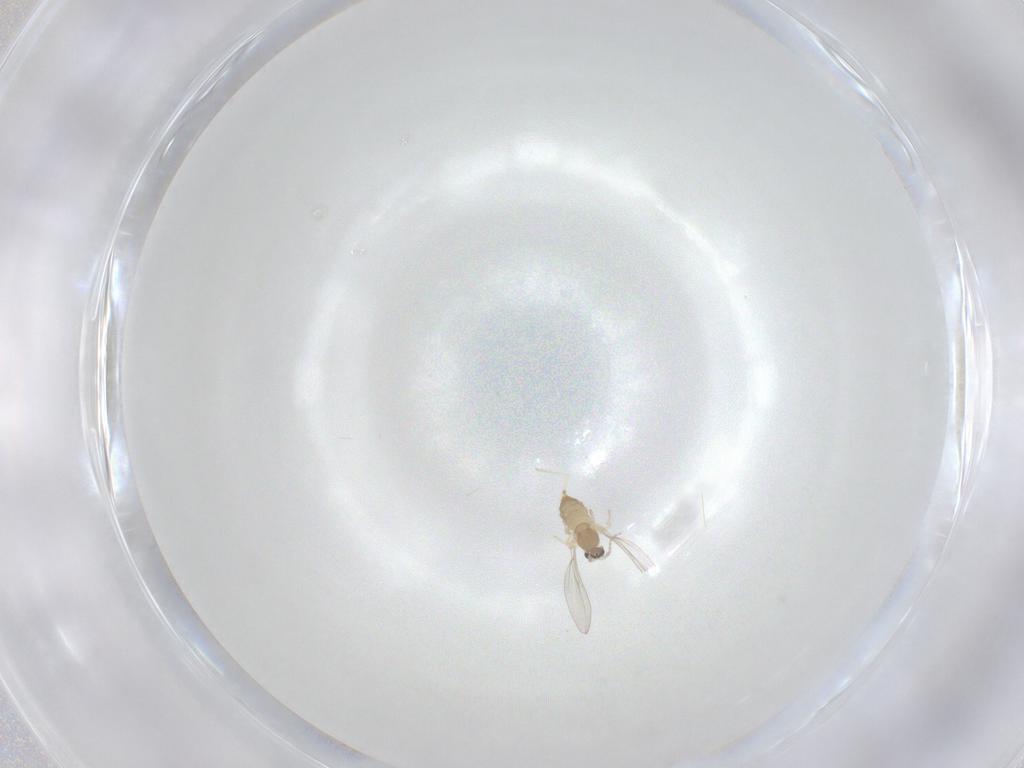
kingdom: Animalia
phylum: Arthropoda
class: Insecta
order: Diptera
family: Cecidomyiidae
